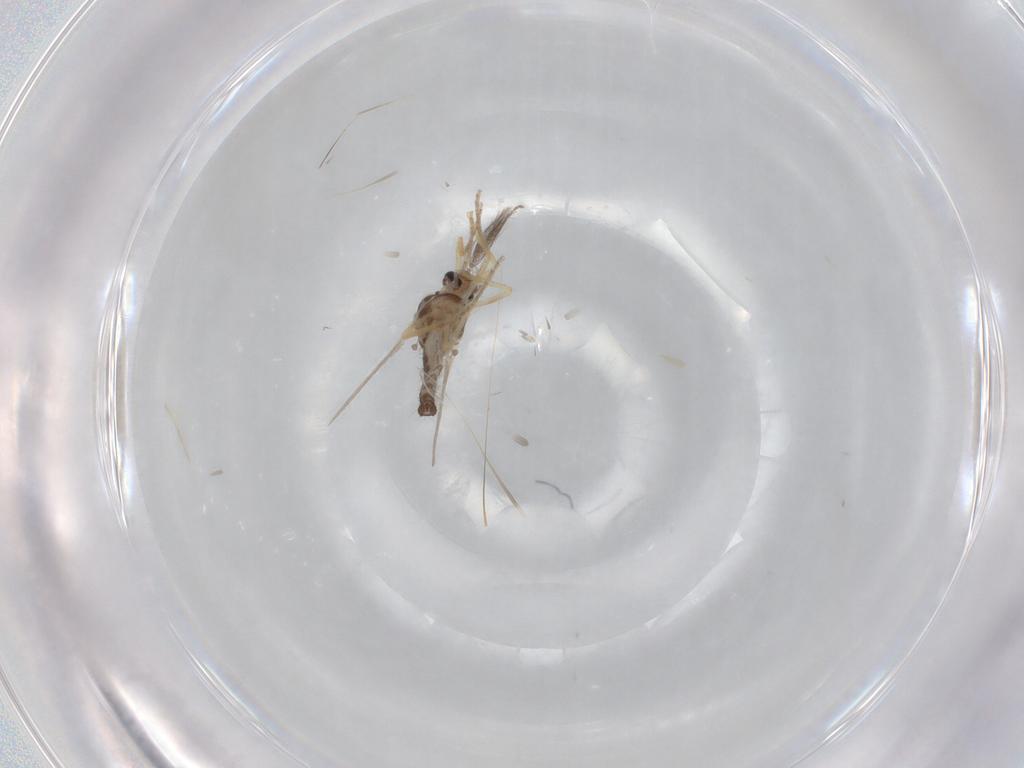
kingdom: Animalia
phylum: Arthropoda
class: Insecta
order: Diptera
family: Ceratopogonidae
